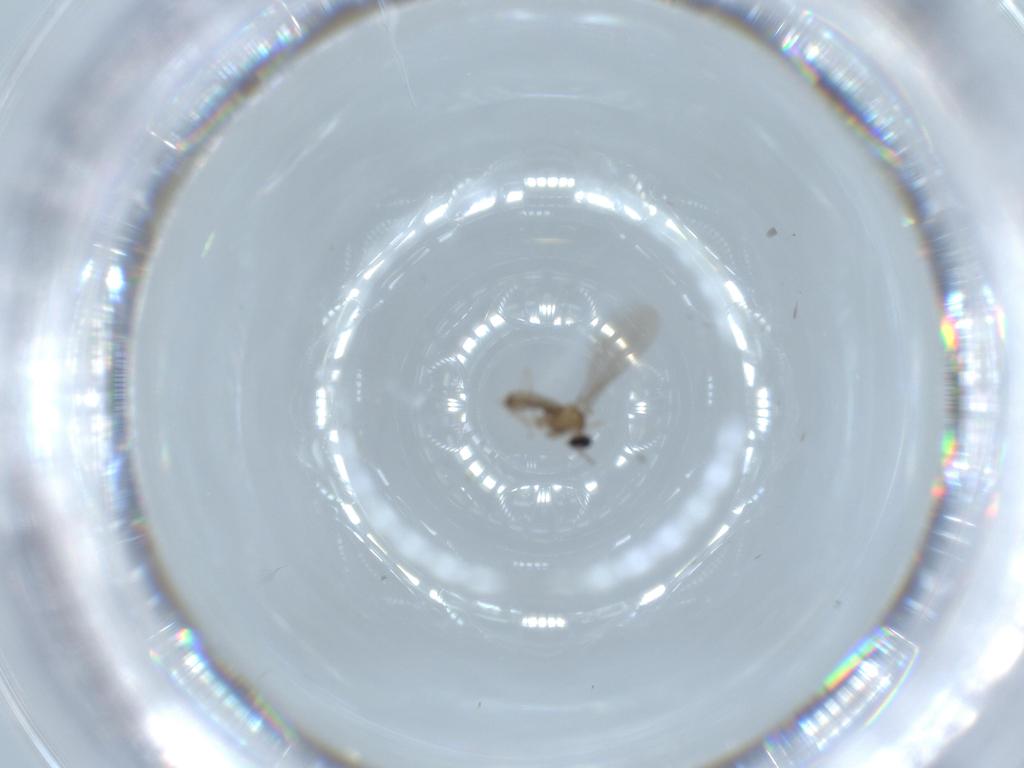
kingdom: Animalia
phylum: Arthropoda
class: Insecta
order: Diptera
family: Cecidomyiidae
